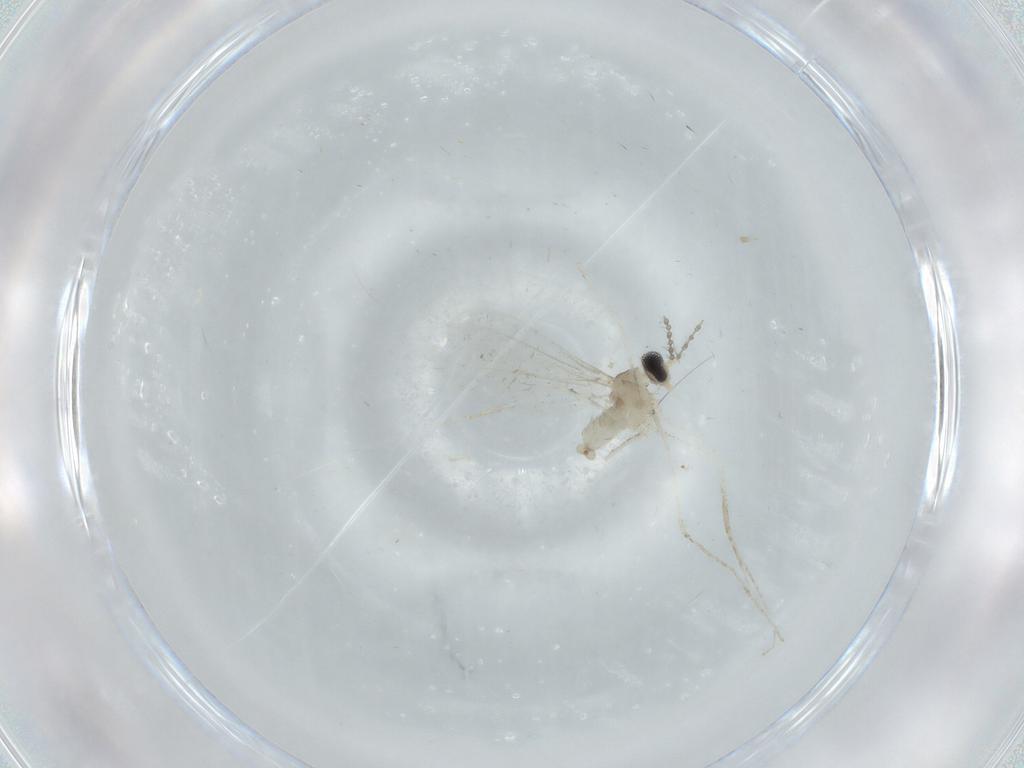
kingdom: Animalia
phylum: Arthropoda
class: Insecta
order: Diptera
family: Cecidomyiidae
